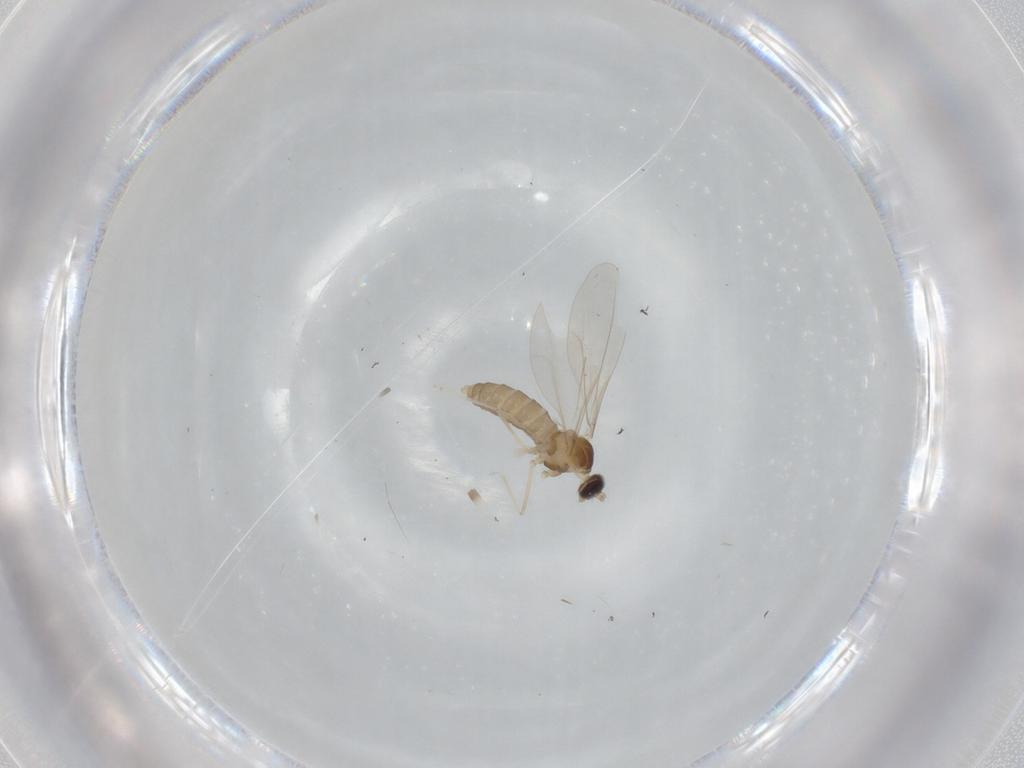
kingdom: Animalia
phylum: Arthropoda
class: Insecta
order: Diptera
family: Cecidomyiidae
